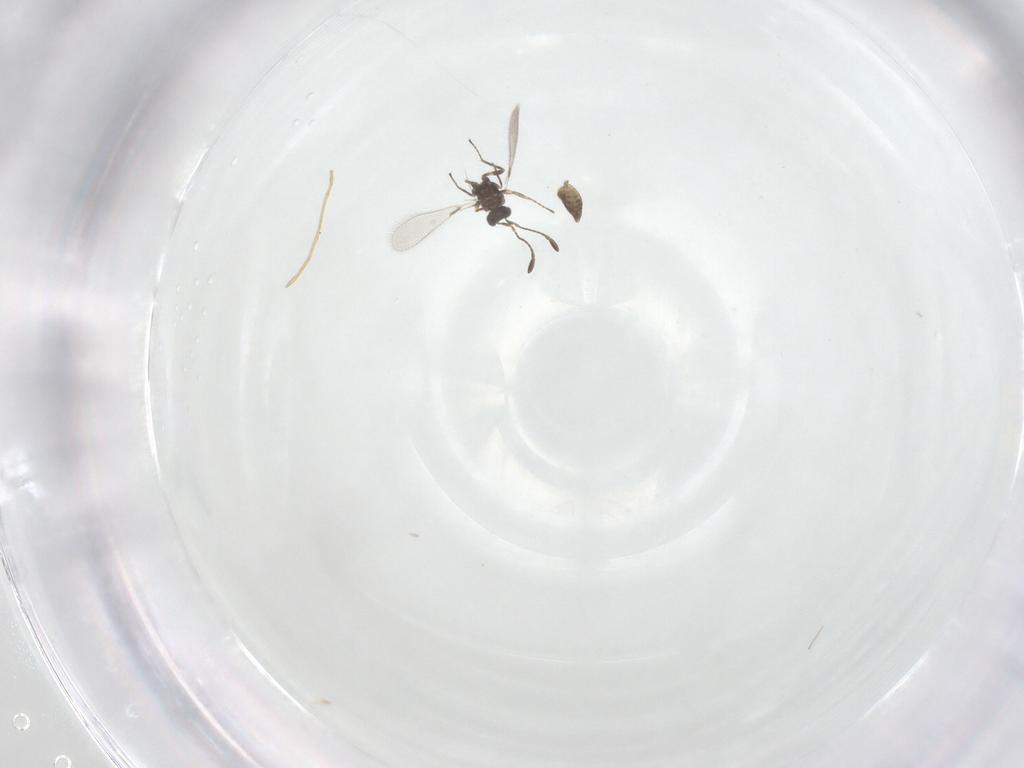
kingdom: Animalia
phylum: Arthropoda
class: Insecta
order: Hymenoptera
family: Mymaridae
